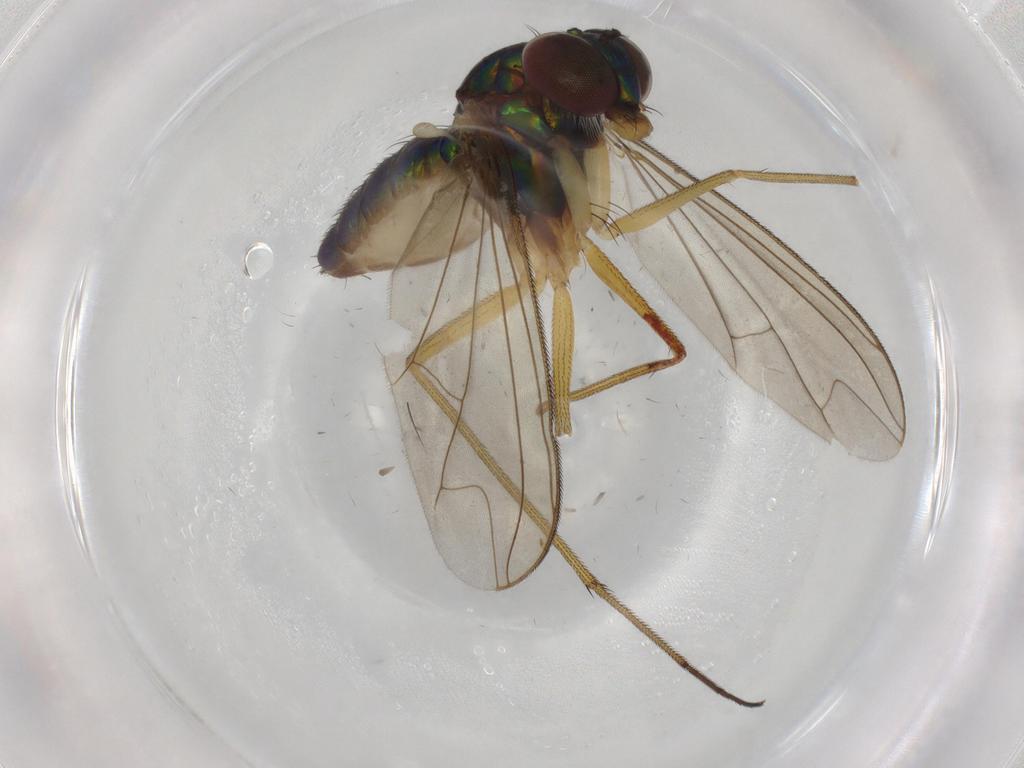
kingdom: Animalia
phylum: Arthropoda
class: Insecta
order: Diptera
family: Dolichopodidae
